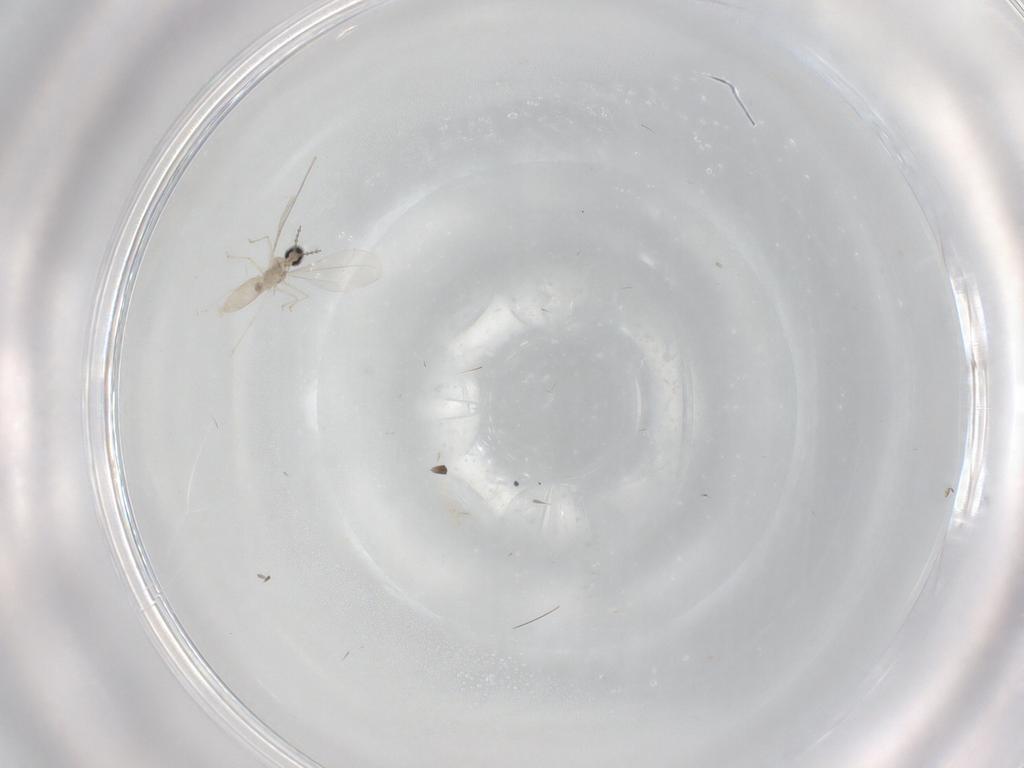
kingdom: Animalia
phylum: Arthropoda
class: Insecta
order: Diptera
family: Cecidomyiidae
